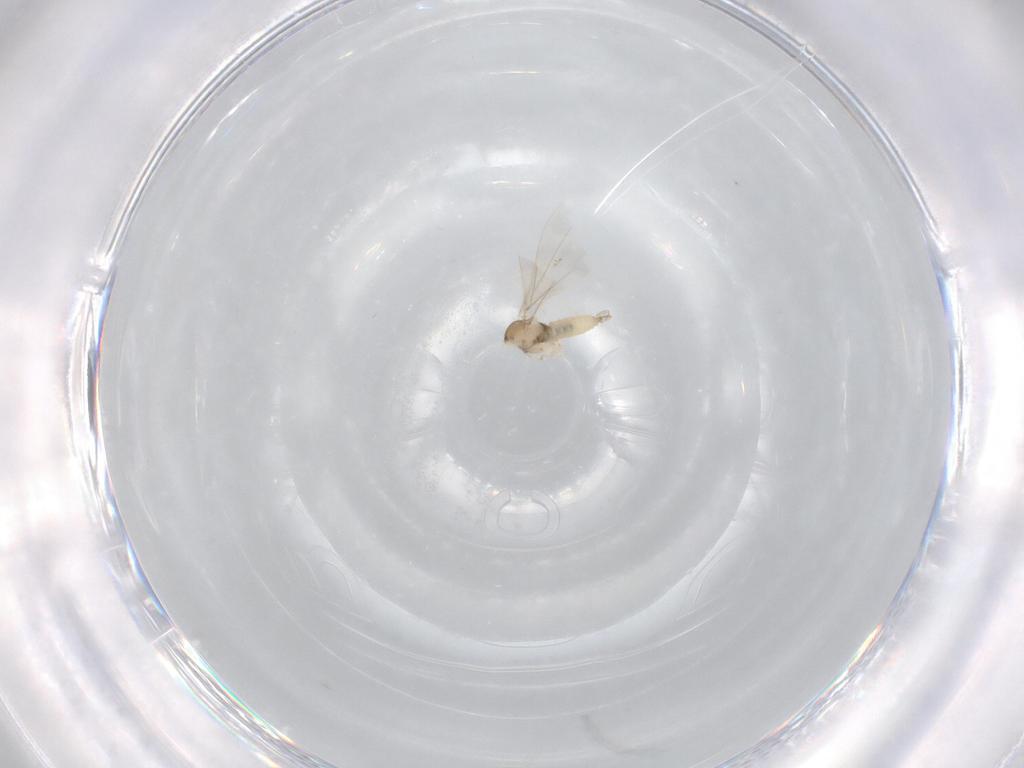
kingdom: Animalia
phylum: Arthropoda
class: Insecta
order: Diptera
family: Cecidomyiidae
